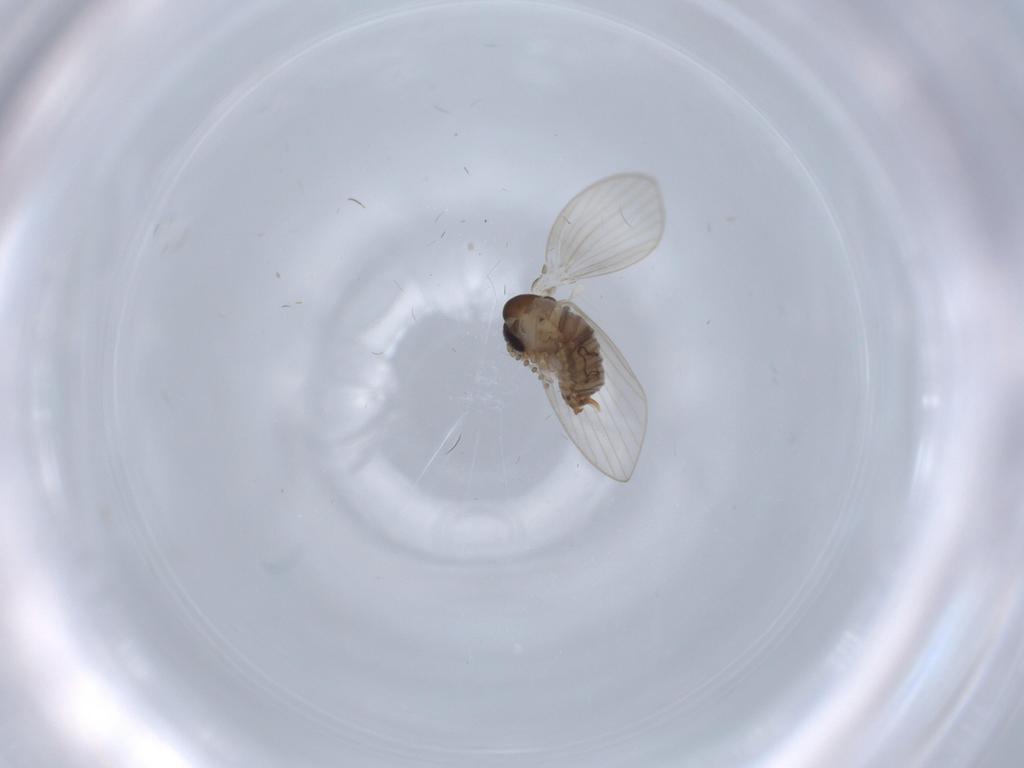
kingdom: Animalia
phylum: Arthropoda
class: Insecta
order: Diptera
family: Psychodidae
